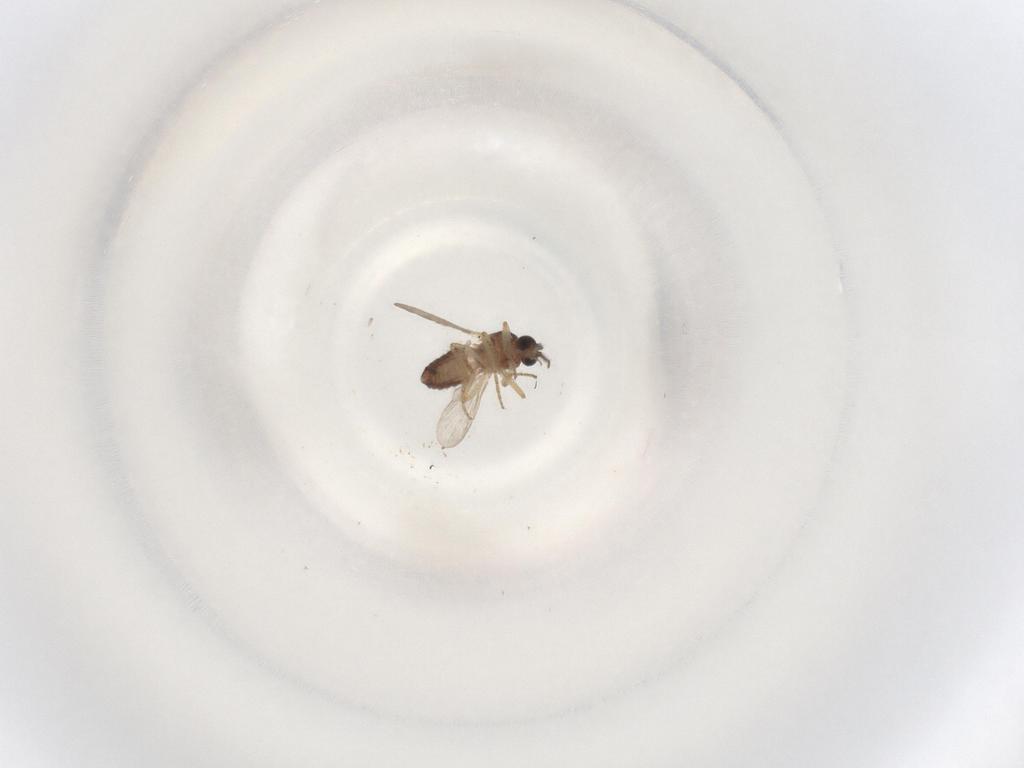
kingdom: Animalia
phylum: Arthropoda
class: Insecta
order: Diptera
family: Ceratopogonidae
